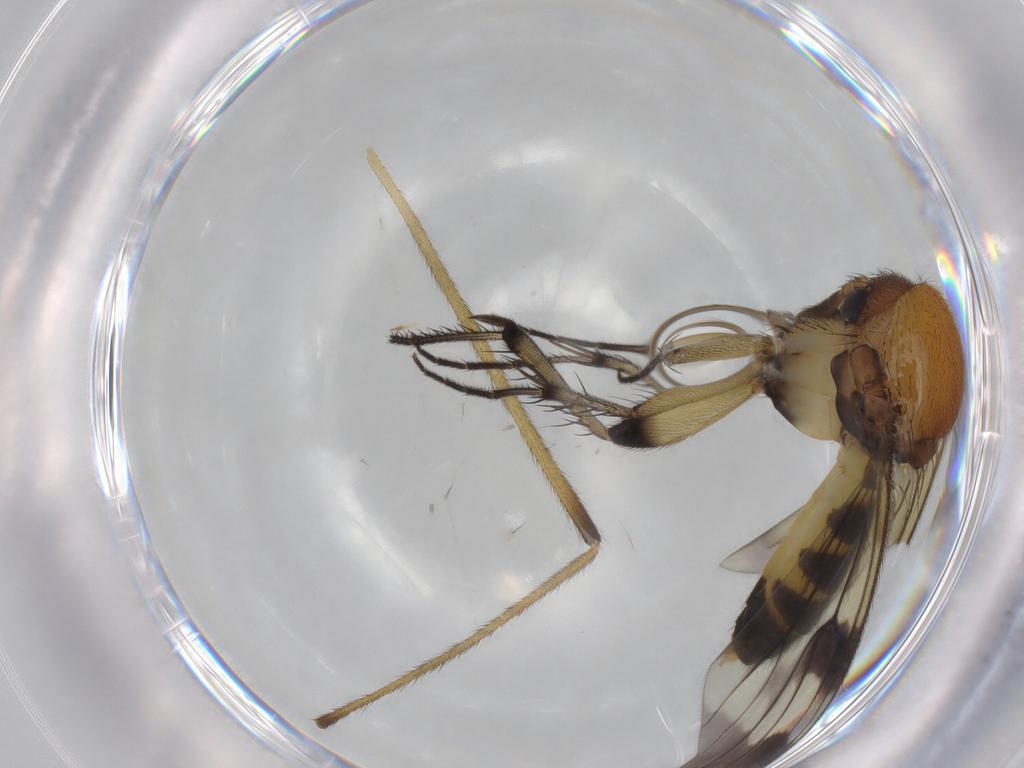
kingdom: Animalia
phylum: Arthropoda
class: Insecta
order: Diptera
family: Mycetophilidae
